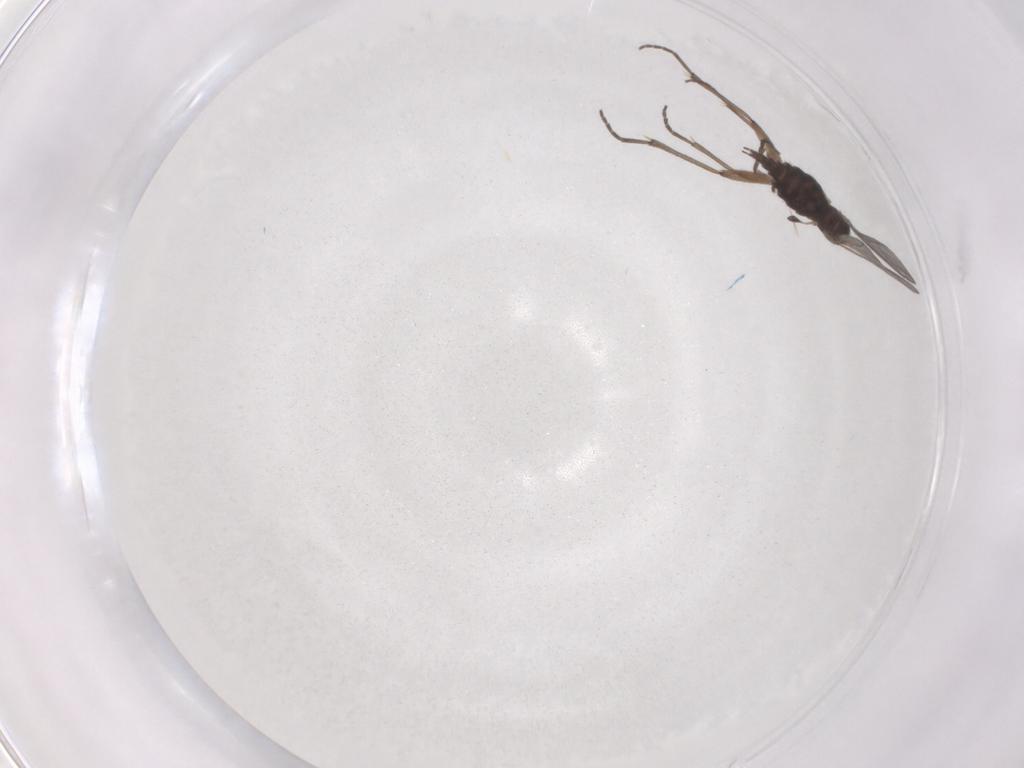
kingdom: Animalia
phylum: Arthropoda
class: Insecta
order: Diptera
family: Sciaridae
